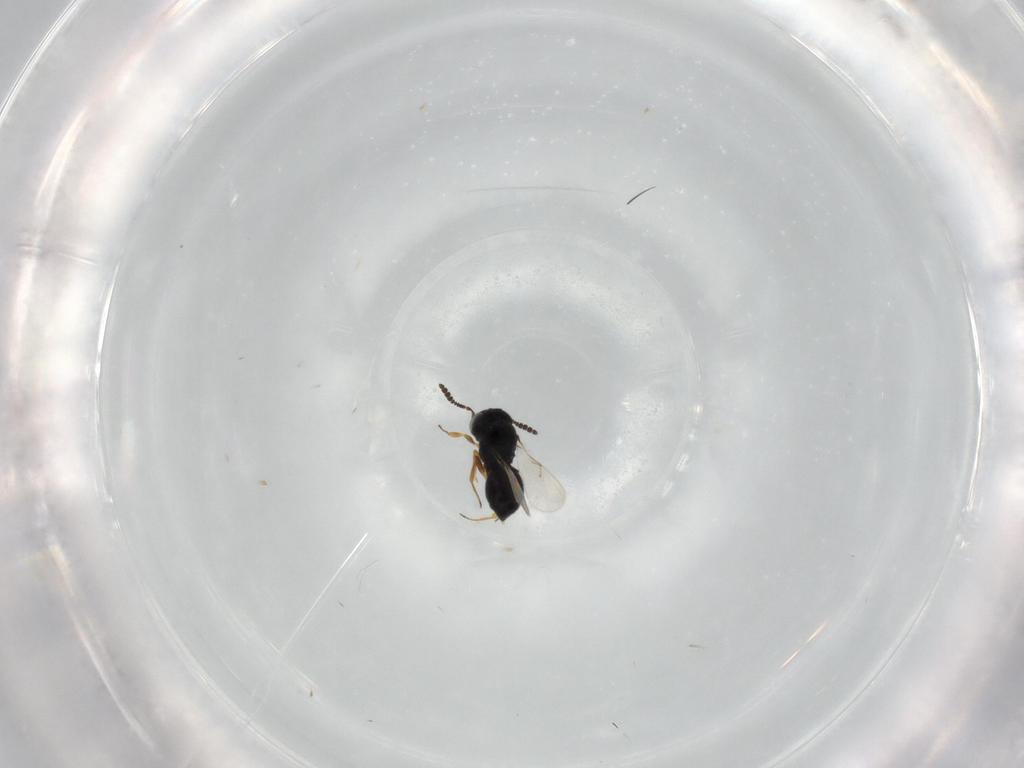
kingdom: Animalia
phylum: Arthropoda
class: Insecta
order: Hymenoptera
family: Scelionidae
